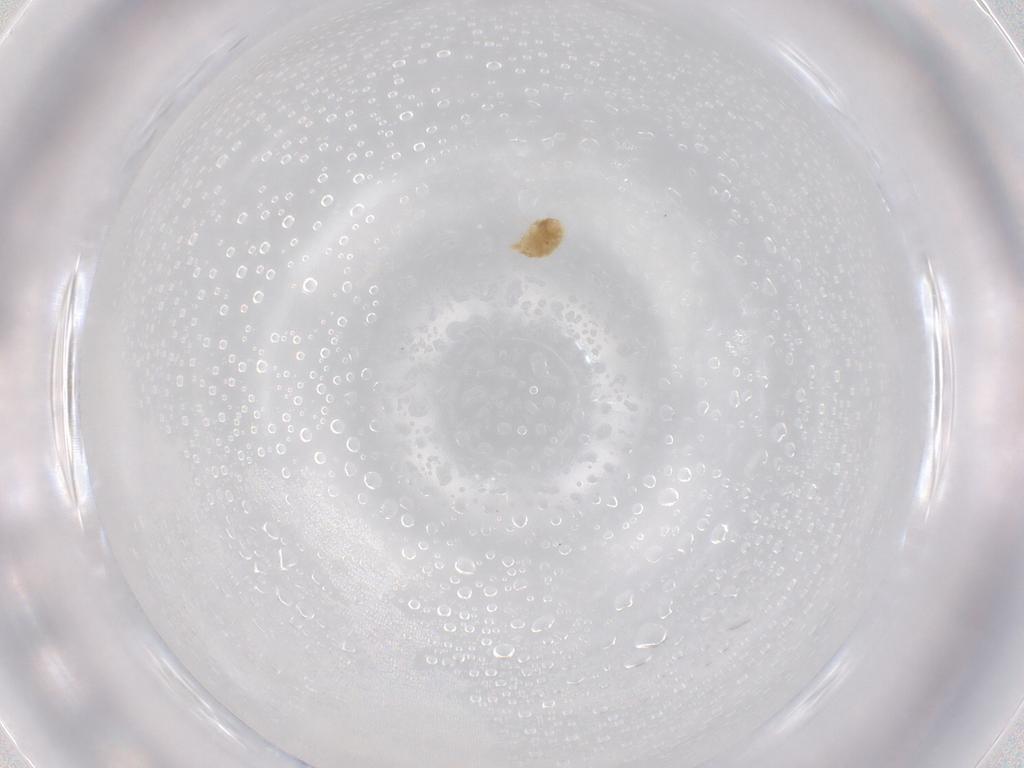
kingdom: Animalia
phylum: Arthropoda
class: Arachnida
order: Trombidiformes
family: Eupodidae
